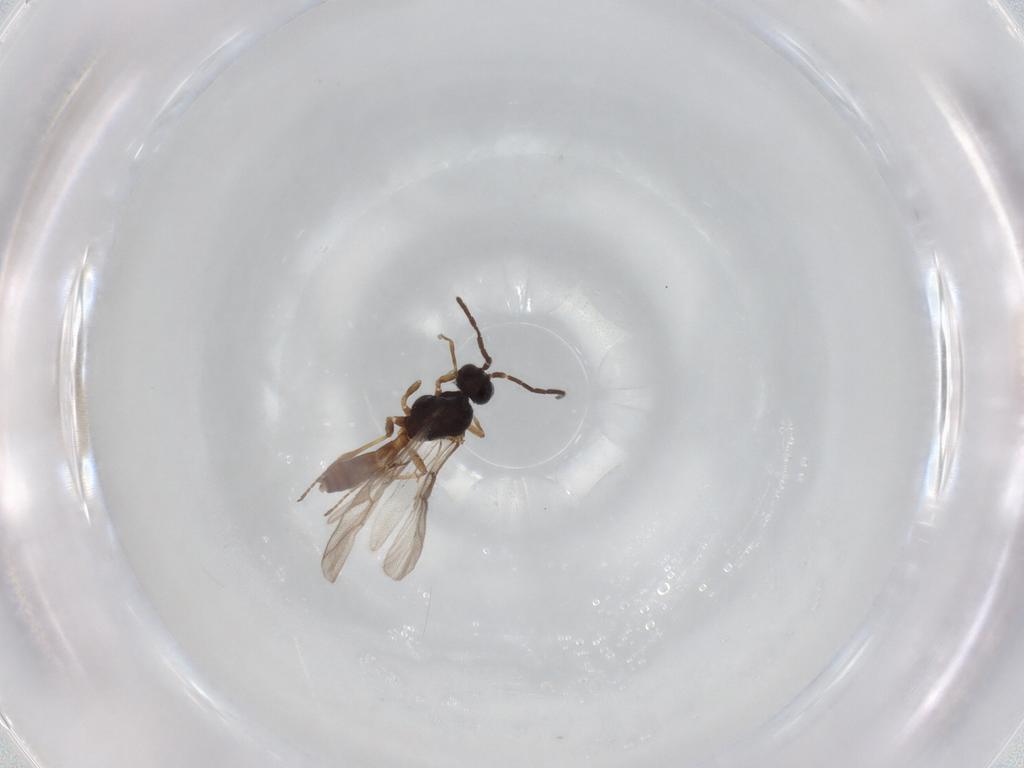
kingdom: Animalia
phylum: Arthropoda
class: Insecta
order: Hymenoptera
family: Braconidae
